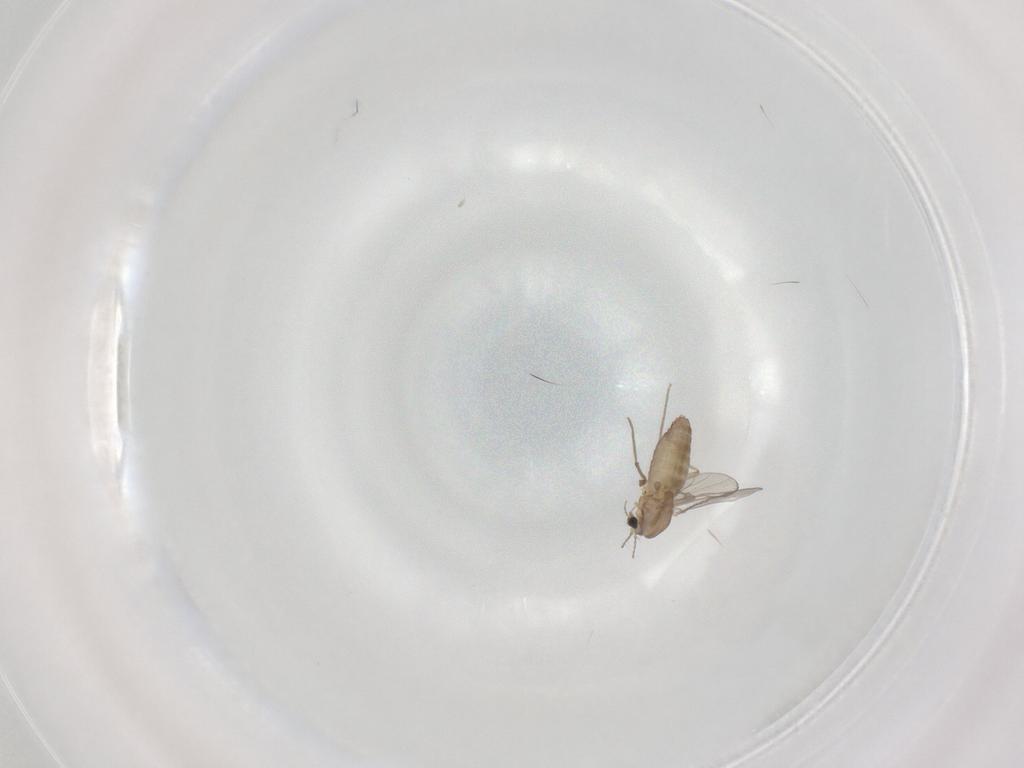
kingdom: Animalia
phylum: Arthropoda
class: Insecta
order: Diptera
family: Chironomidae
